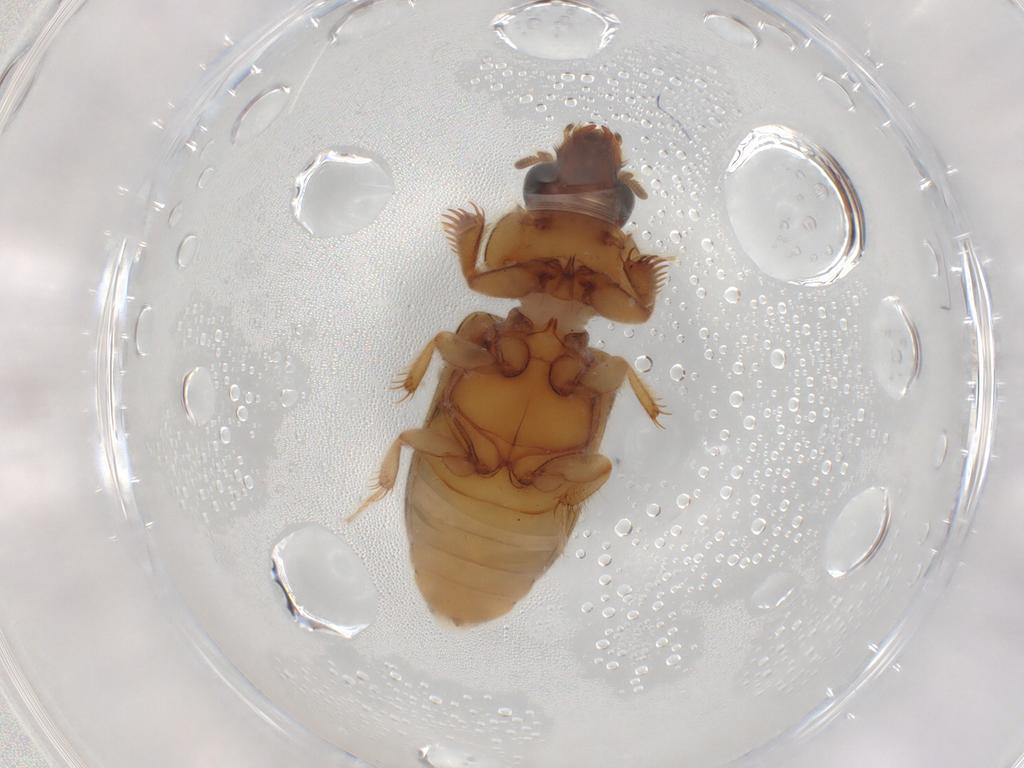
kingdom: Animalia
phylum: Arthropoda
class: Insecta
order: Coleoptera
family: Heteroceridae
